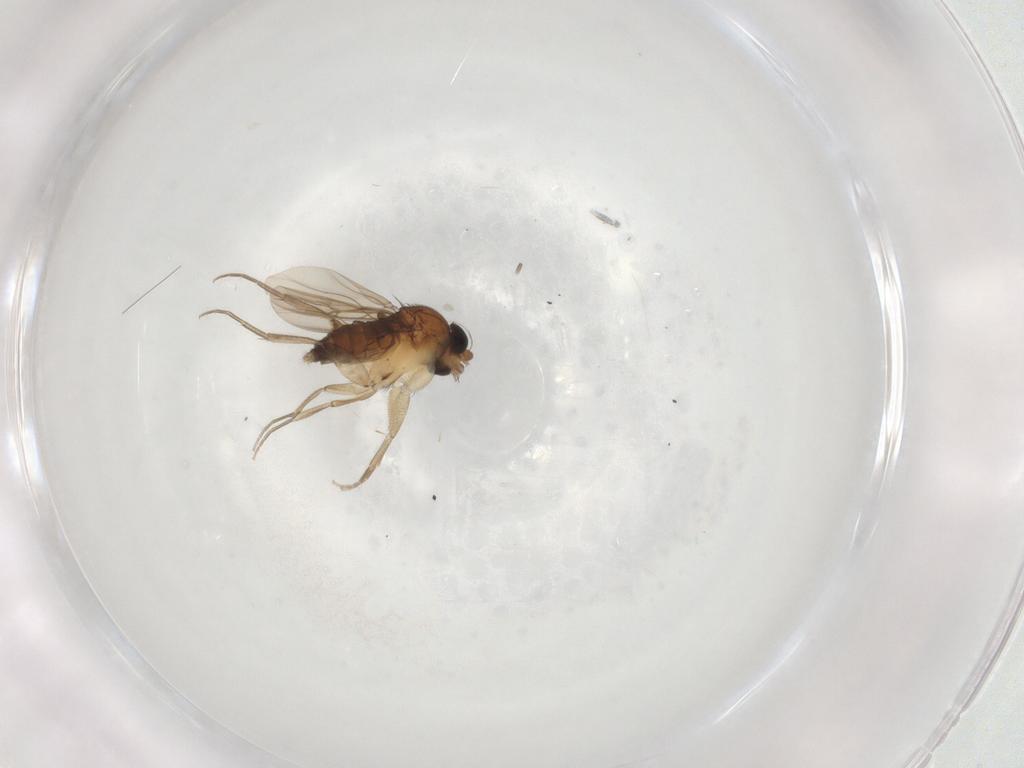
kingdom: Animalia
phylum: Arthropoda
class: Insecta
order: Diptera
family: Phoridae
